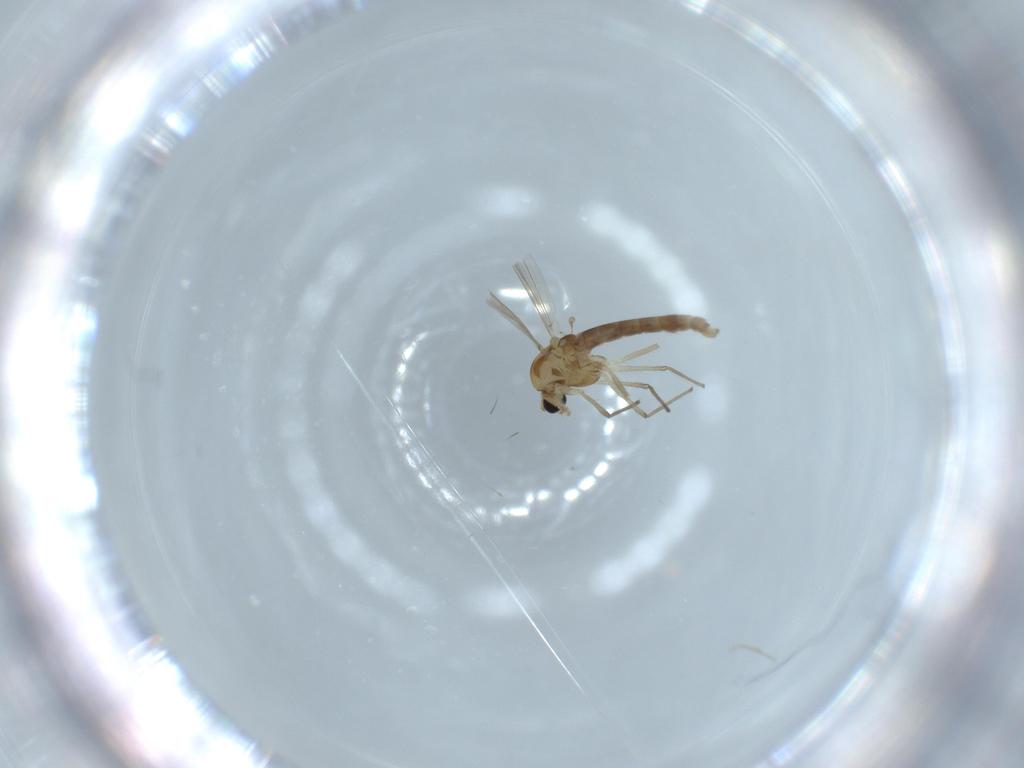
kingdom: Animalia
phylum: Arthropoda
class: Insecta
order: Diptera
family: Chironomidae
